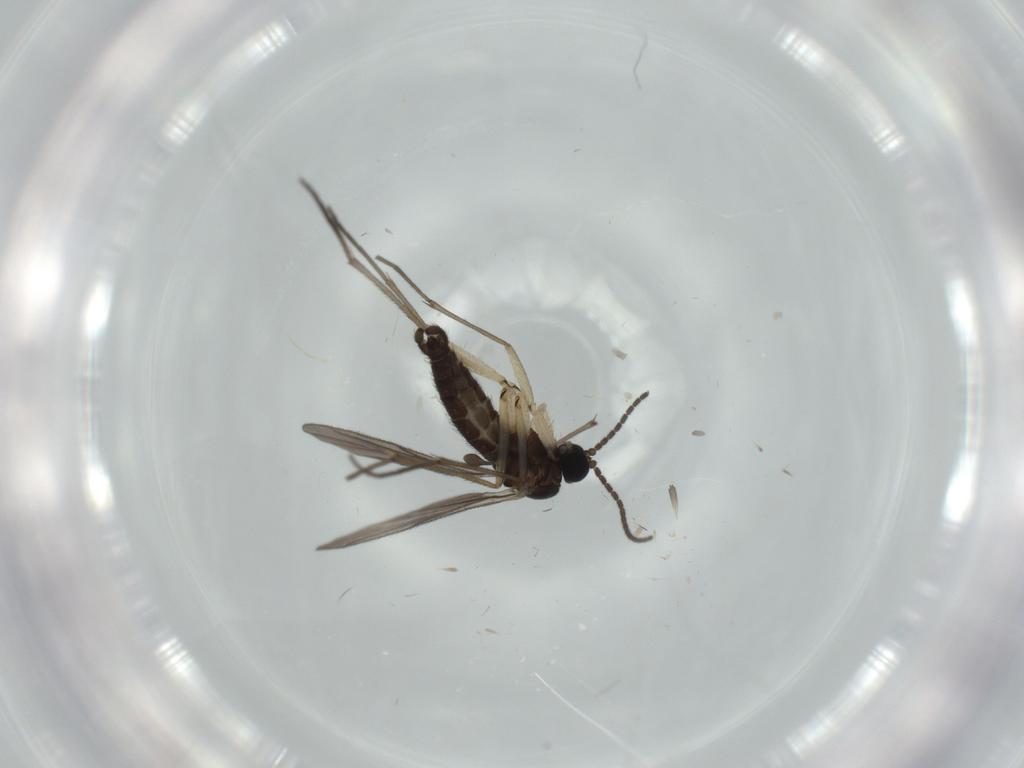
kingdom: Animalia
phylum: Arthropoda
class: Insecta
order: Diptera
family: Sciaridae
